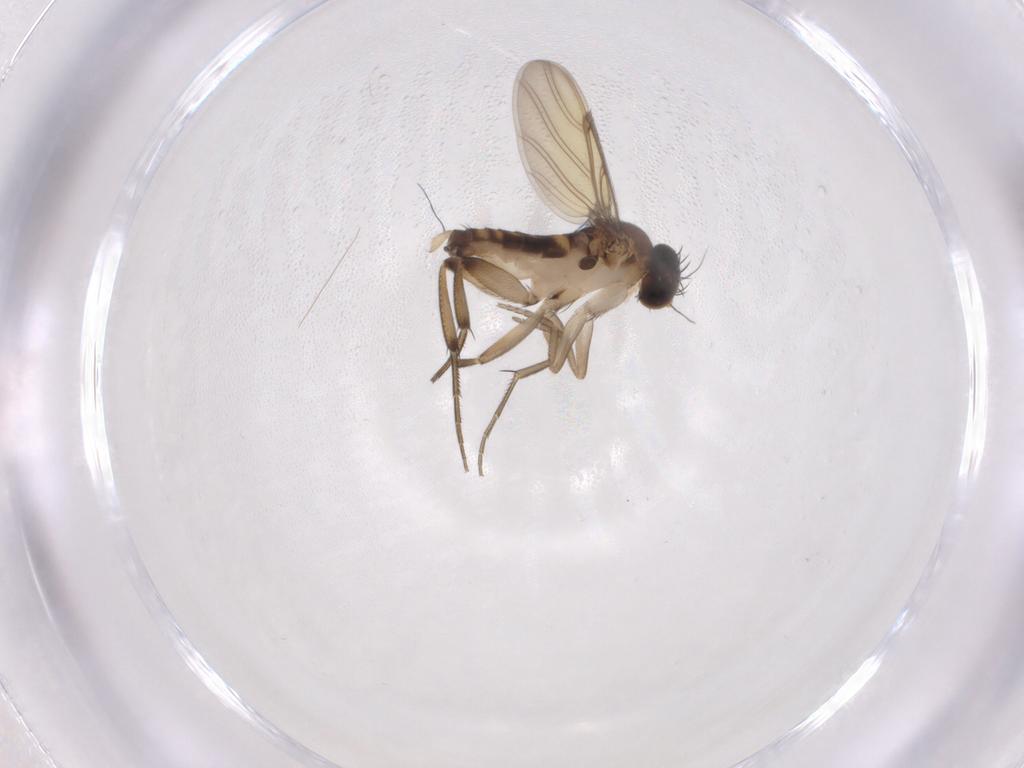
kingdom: Animalia
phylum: Arthropoda
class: Insecta
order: Diptera
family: Phoridae
